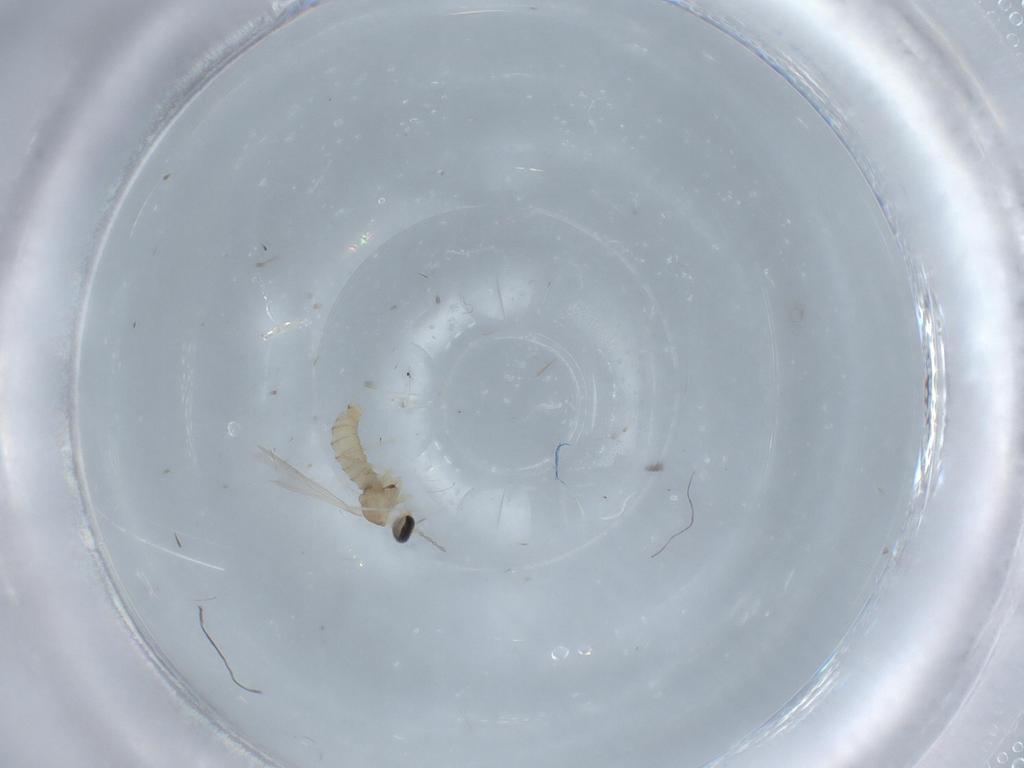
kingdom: Animalia
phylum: Arthropoda
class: Insecta
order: Diptera
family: Cecidomyiidae
